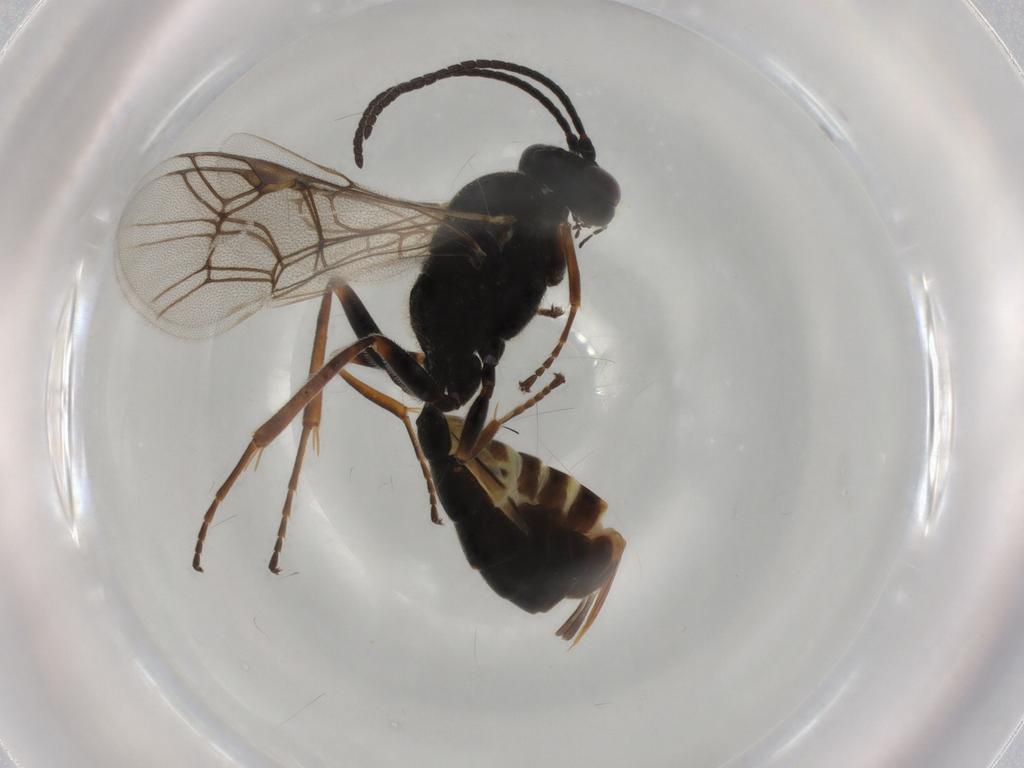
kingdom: Animalia
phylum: Arthropoda
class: Insecta
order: Hymenoptera
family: Ichneumonidae
